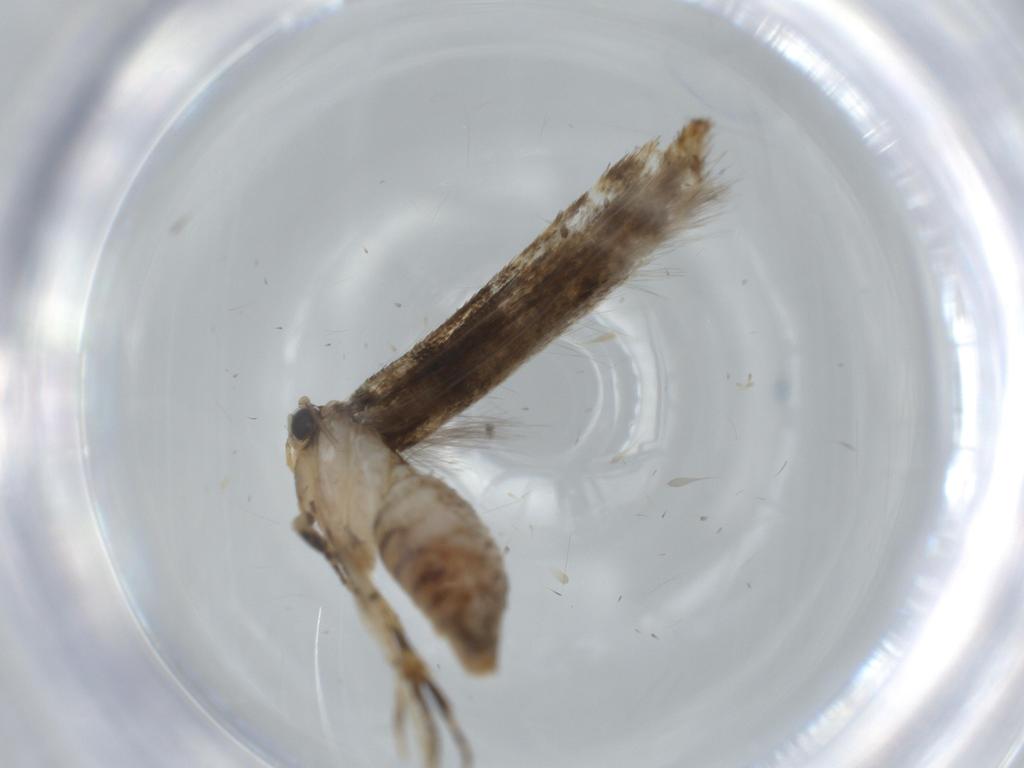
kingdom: Animalia
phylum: Arthropoda
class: Insecta
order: Lepidoptera
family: Tineidae
